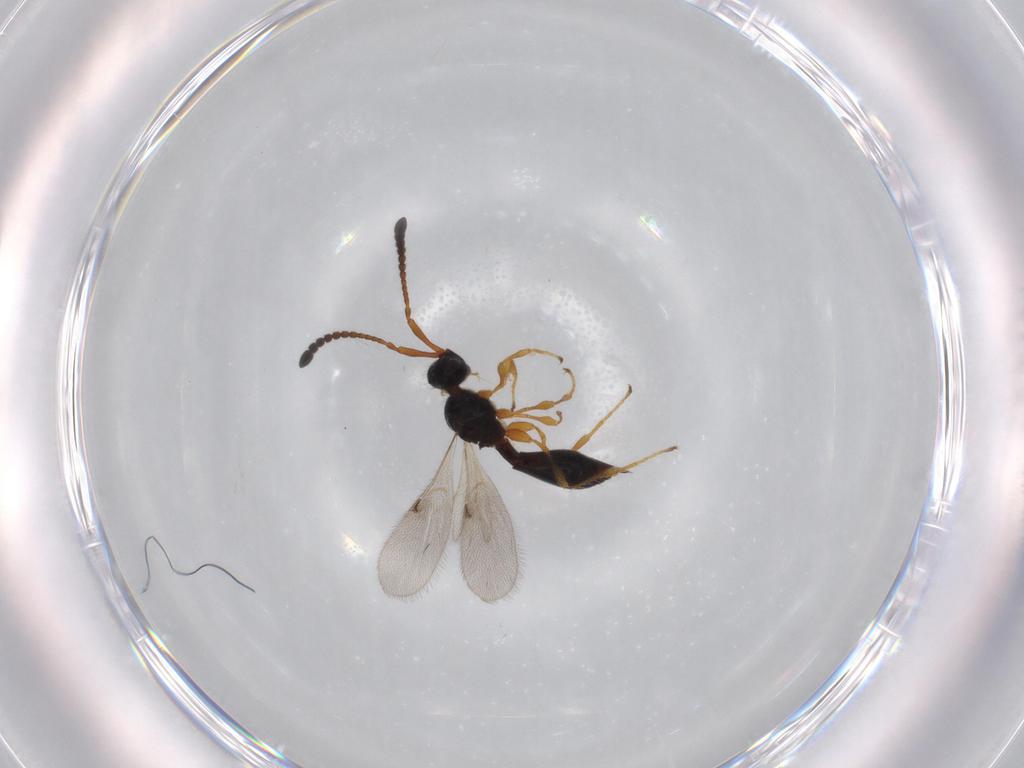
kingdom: Animalia
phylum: Arthropoda
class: Insecta
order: Hymenoptera
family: Diapriidae
